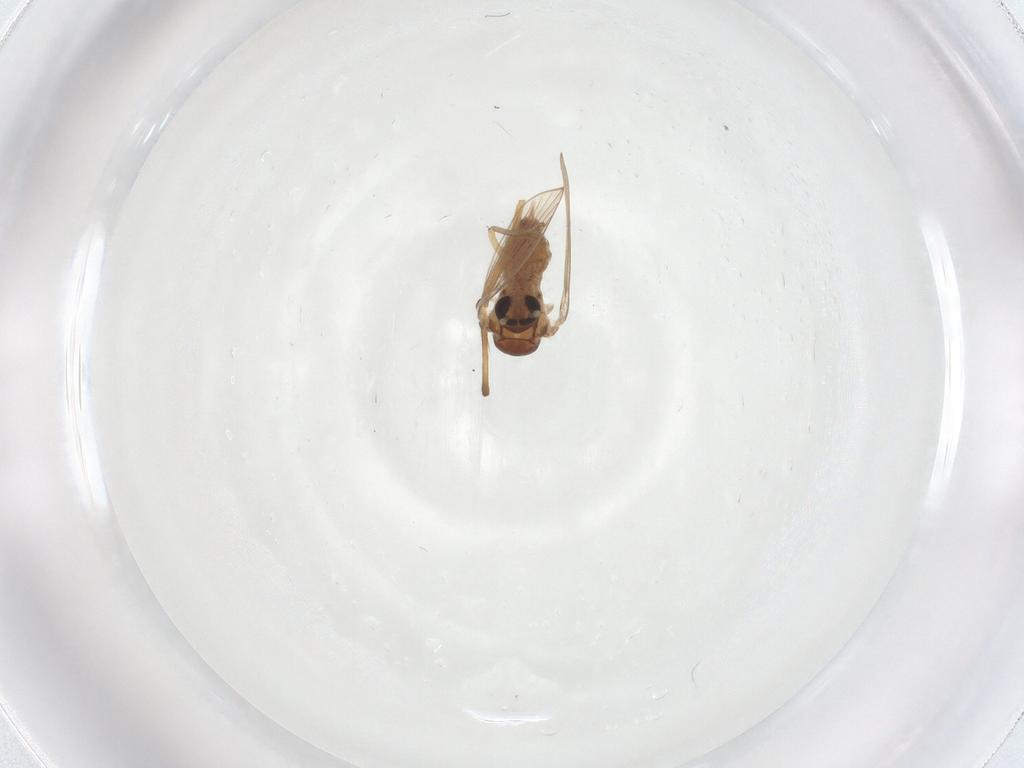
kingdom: Animalia
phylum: Arthropoda
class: Insecta
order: Diptera
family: Psychodidae
